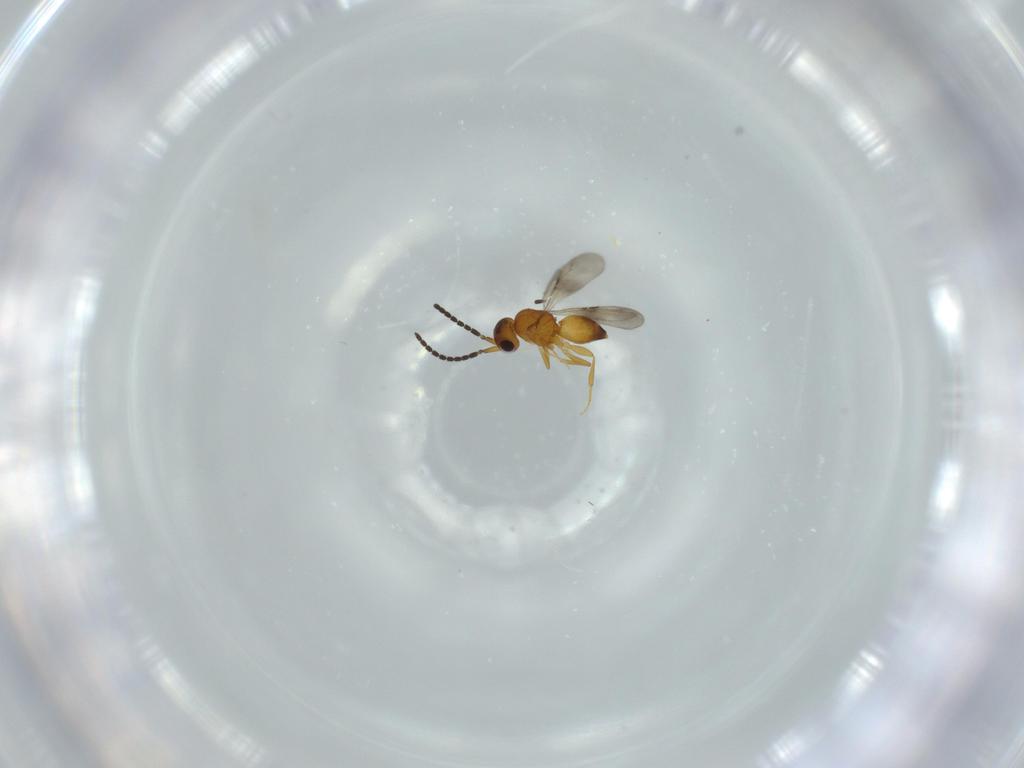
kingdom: Animalia
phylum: Arthropoda
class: Insecta
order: Hymenoptera
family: Ceraphronidae
